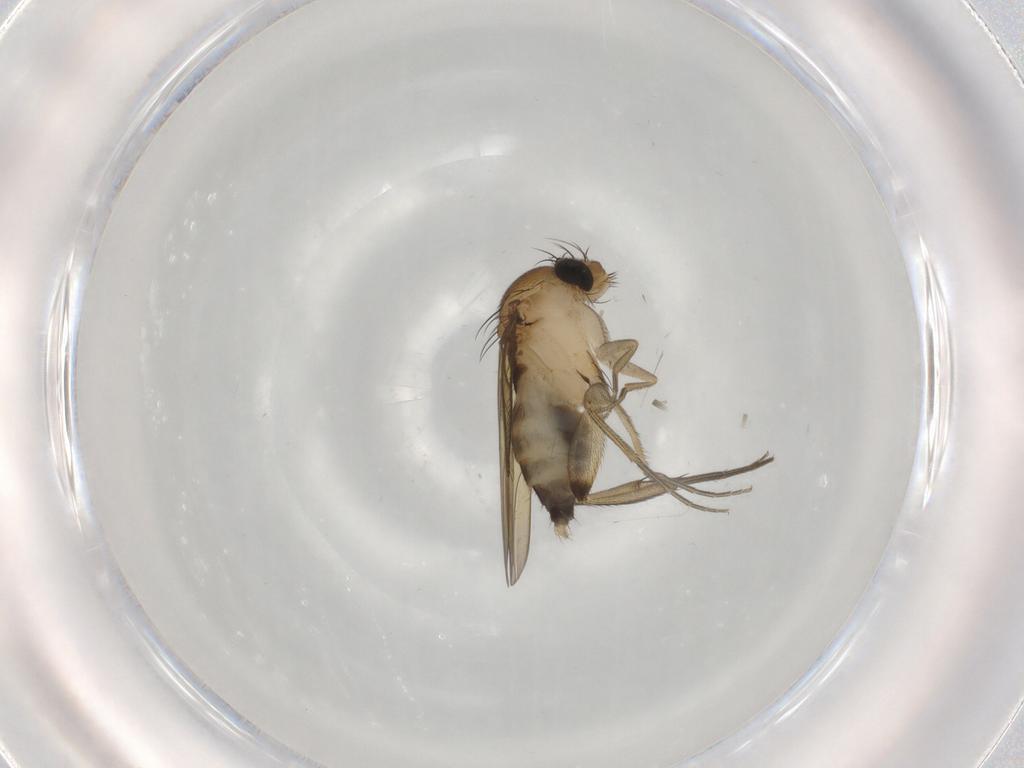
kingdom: Animalia
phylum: Arthropoda
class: Insecta
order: Diptera
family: Phoridae
